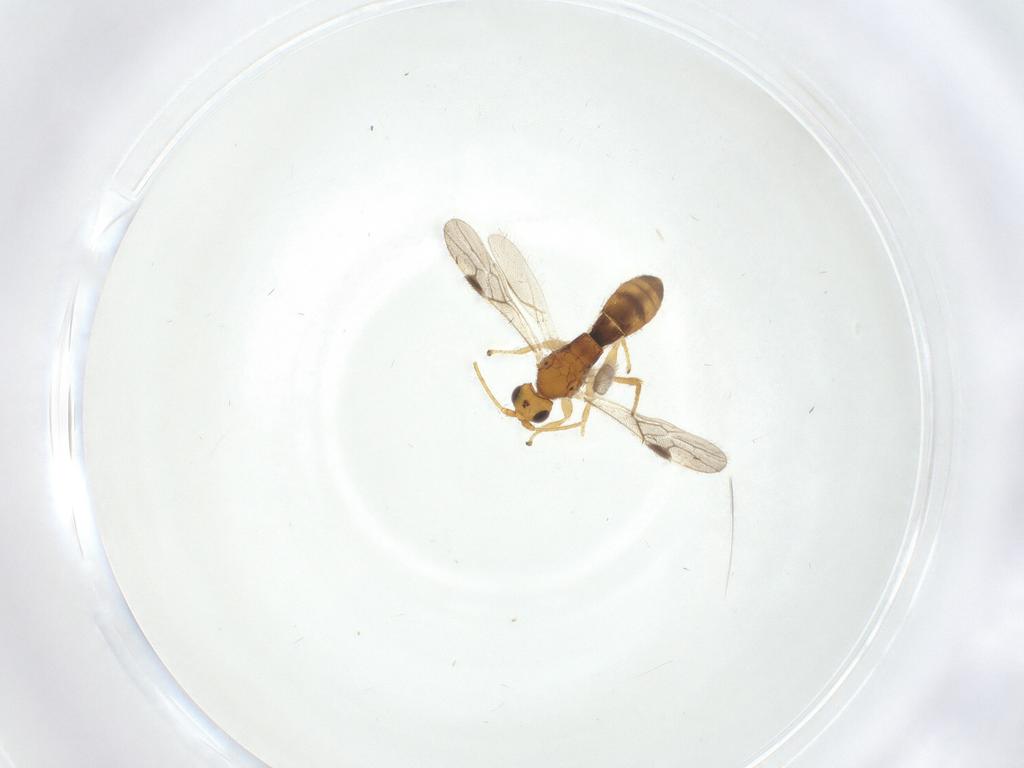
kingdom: Animalia
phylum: Arthropoda
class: Insecta
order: Hymenoptera
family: Braconidae
